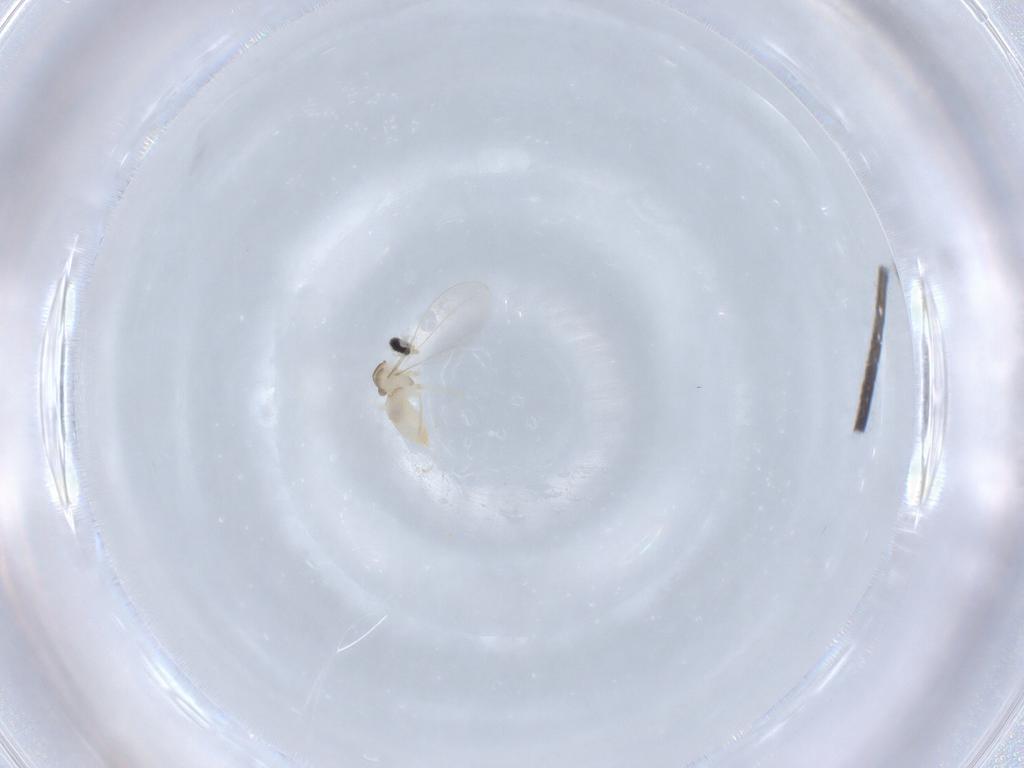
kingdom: Animalia
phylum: Arthropoda
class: Insecta
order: Diptera
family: Cecidomyiidae
